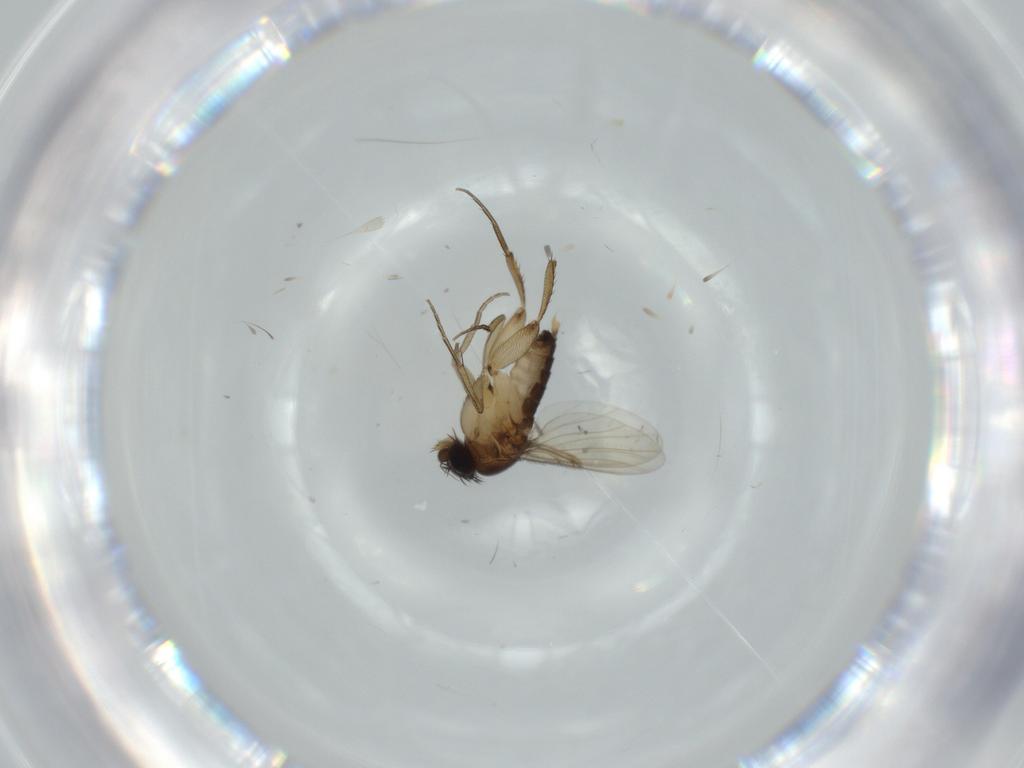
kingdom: Animalia
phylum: Arthropoda
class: Insecta
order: Diptera
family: Phoridae
